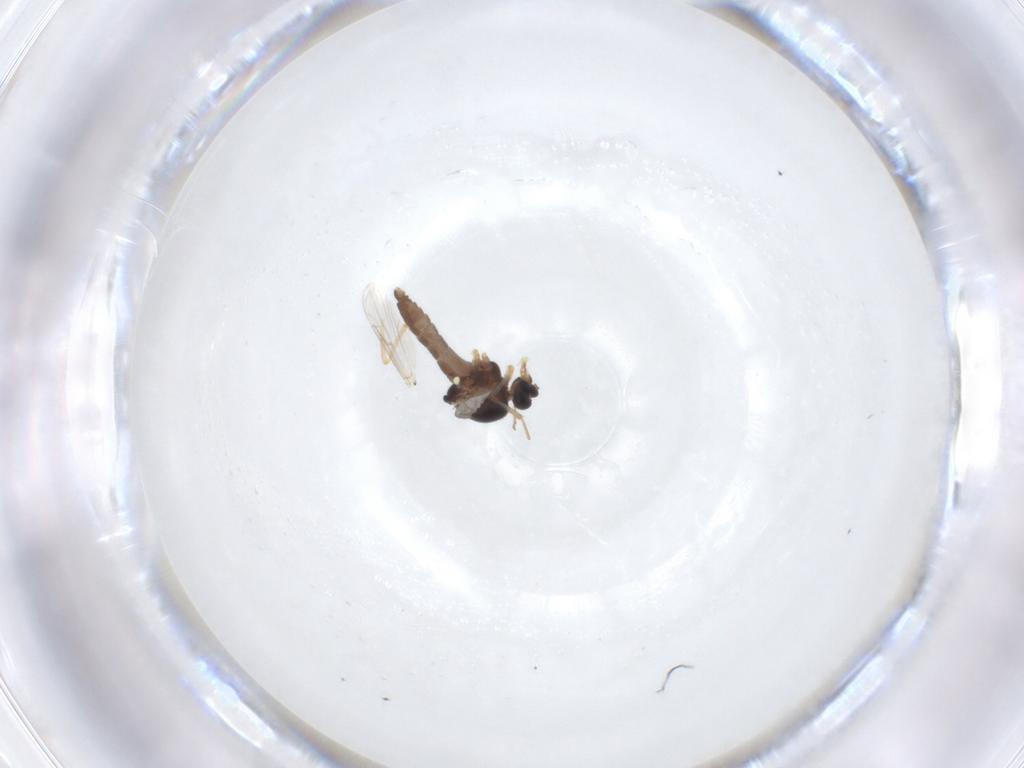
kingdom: Animalia
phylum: Arthropoda
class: Insecta
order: Diptera
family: Ceratopogonidae
